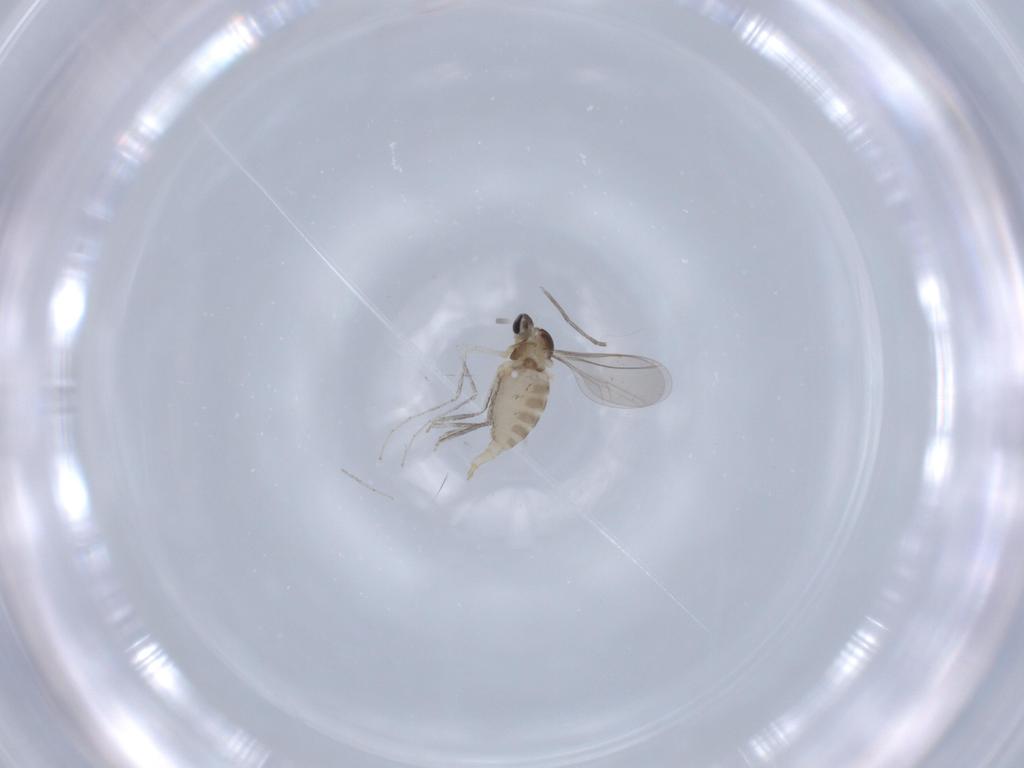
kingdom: Animalia
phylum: Arthropoda
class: Insecta
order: Diptera
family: Cecidomyiidae
